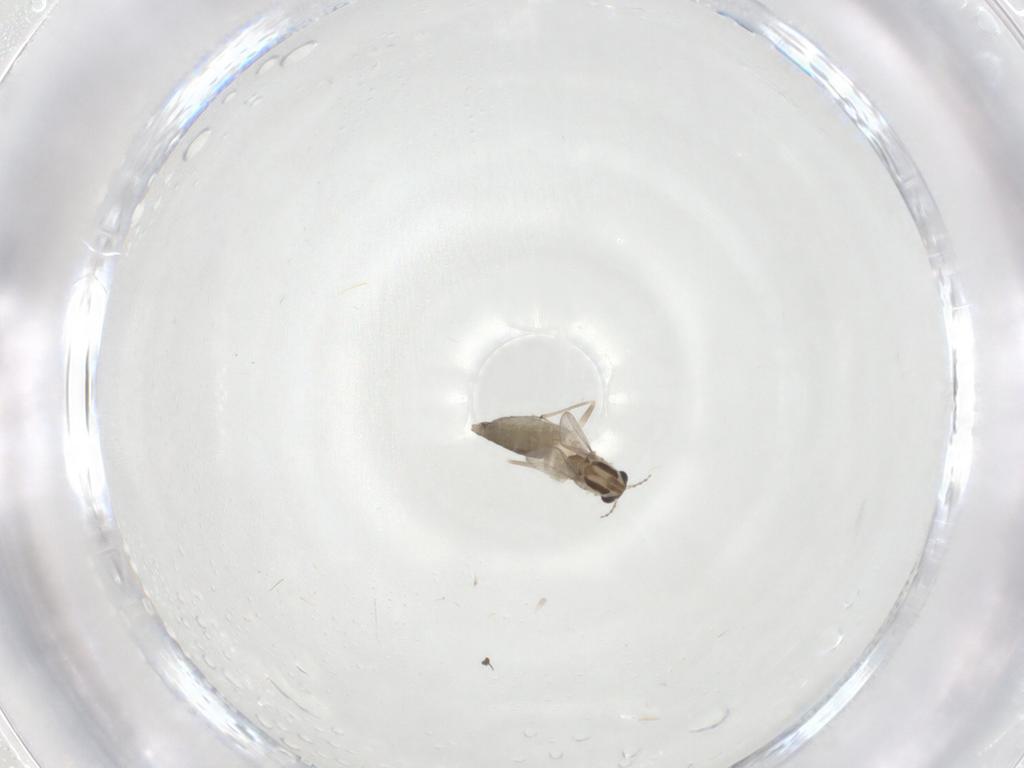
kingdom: Animalia
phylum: Arthropoda
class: Insecta
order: Diptera
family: Chironomidae
